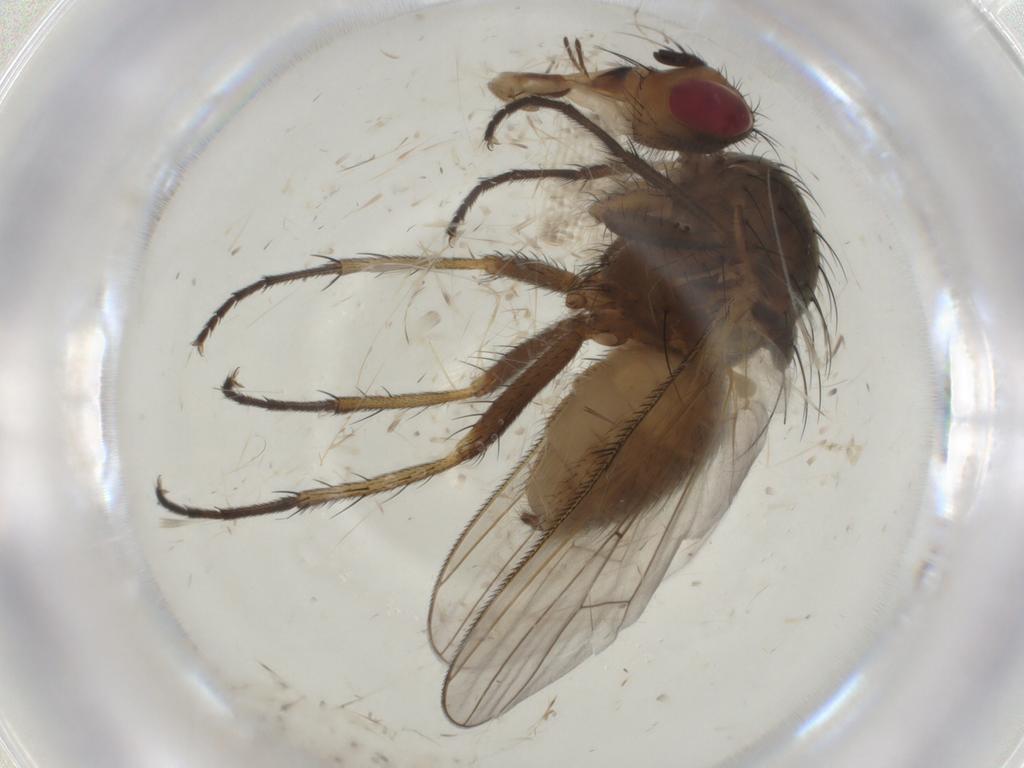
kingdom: Animalia
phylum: Arthropoda
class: Insecta
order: Diptera
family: Anthomyiidae
